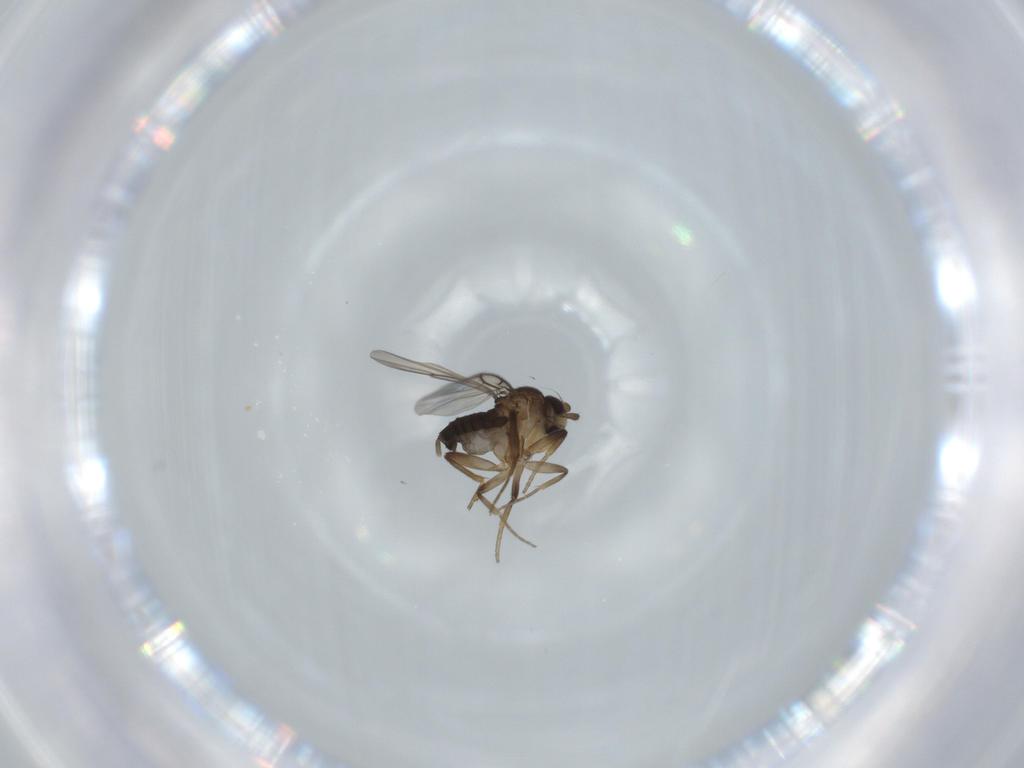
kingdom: Animalia
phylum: Arthropoda
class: Insecta
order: Diptera
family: Phoridae
